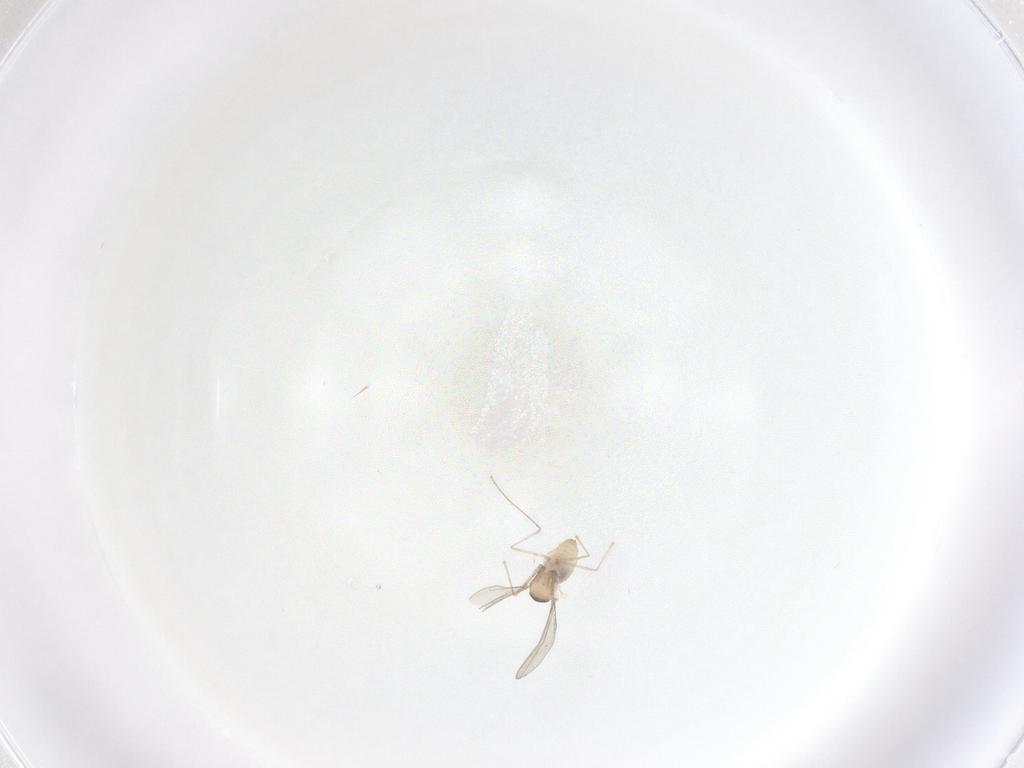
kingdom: Animalia
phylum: Arthropoda
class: Insecta
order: Diptera
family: Cecidomyiidae
